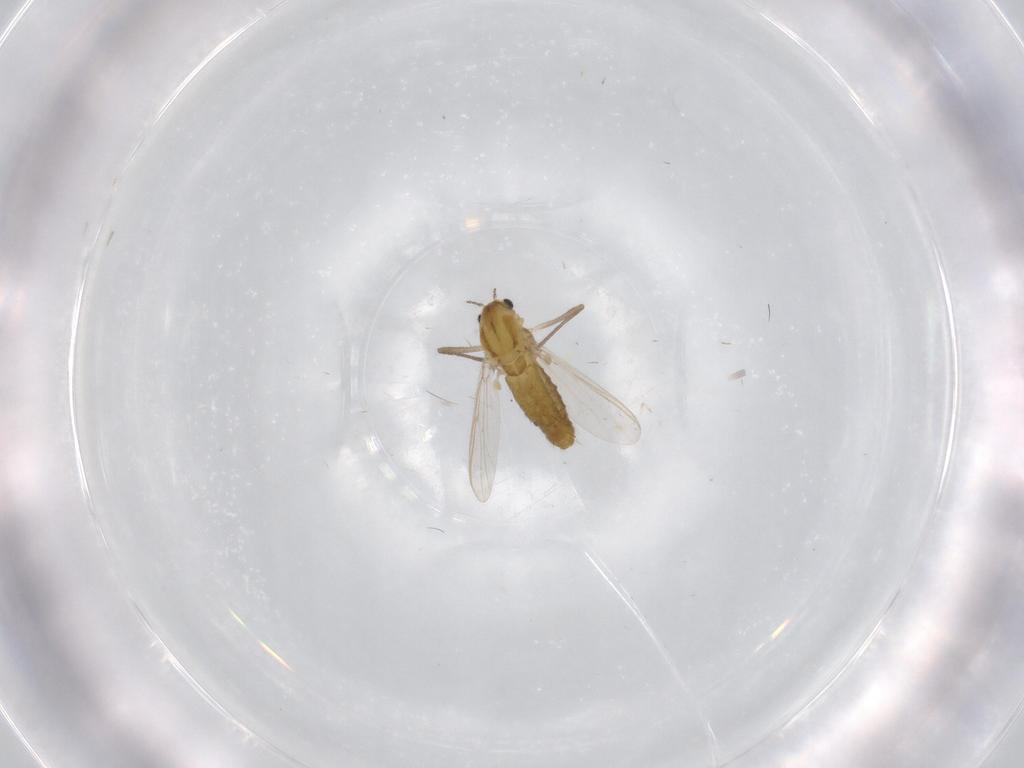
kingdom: Animalia
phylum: Arthropoda
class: Insecta
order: Diptera
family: Chironomidae
